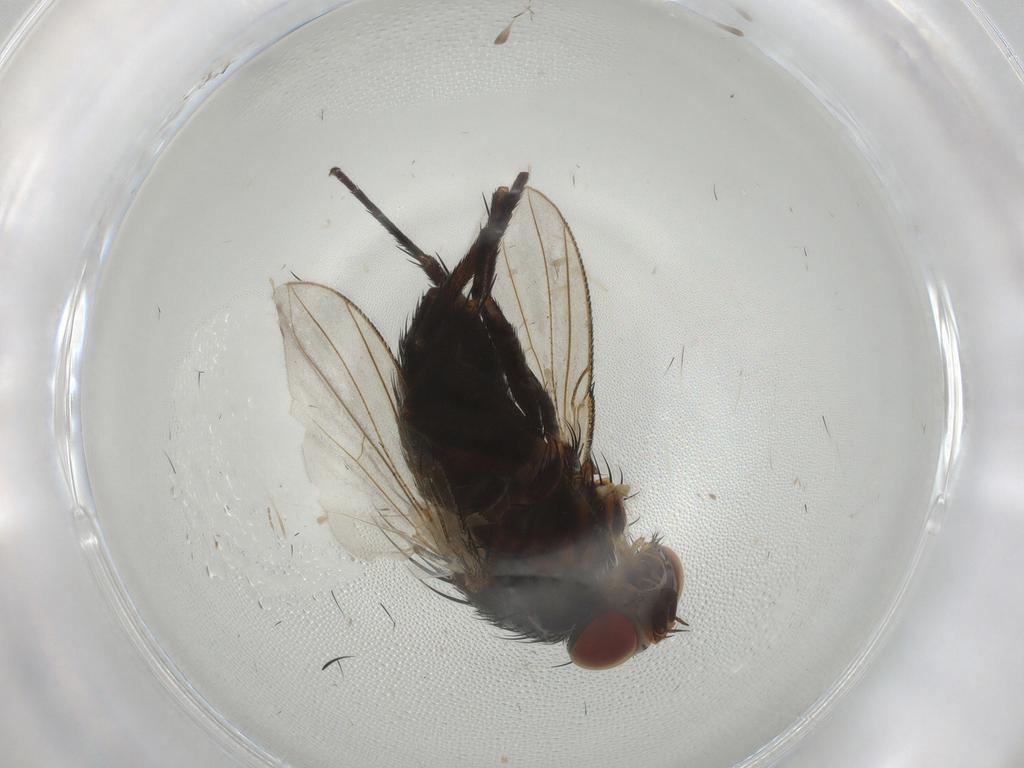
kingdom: Animalia
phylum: Arthropoda
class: Insecta
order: Diptera
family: Tachinidae
